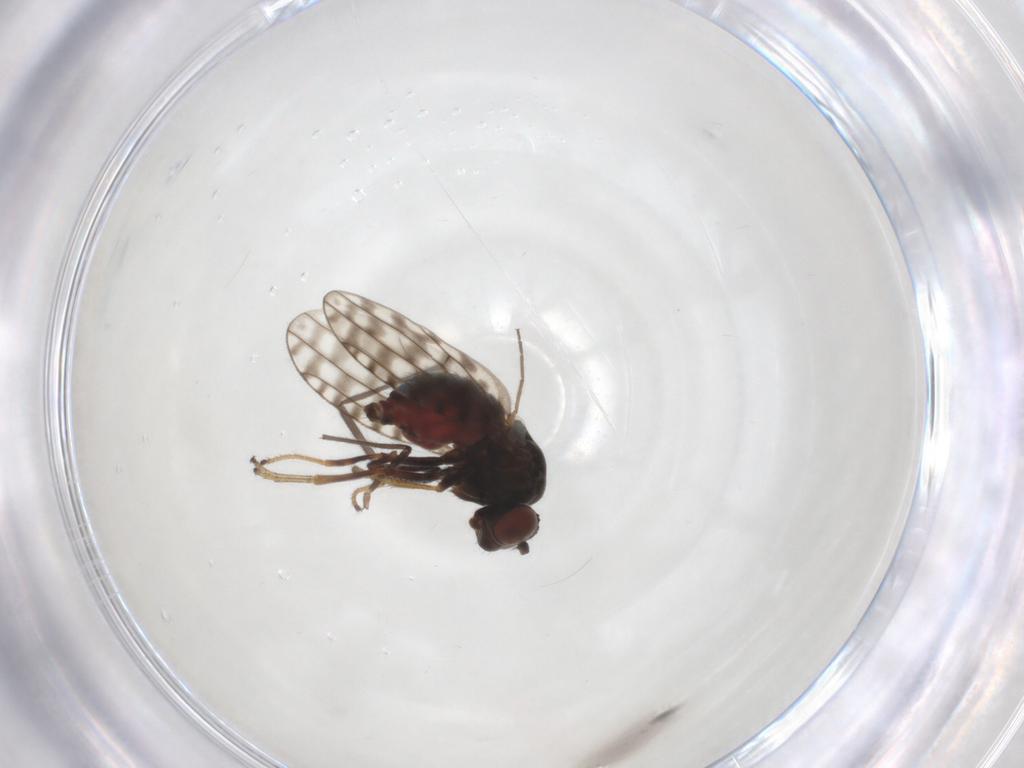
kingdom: Animalia
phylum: Arthropoda
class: Insecta
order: Diptera
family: Ephydridae
